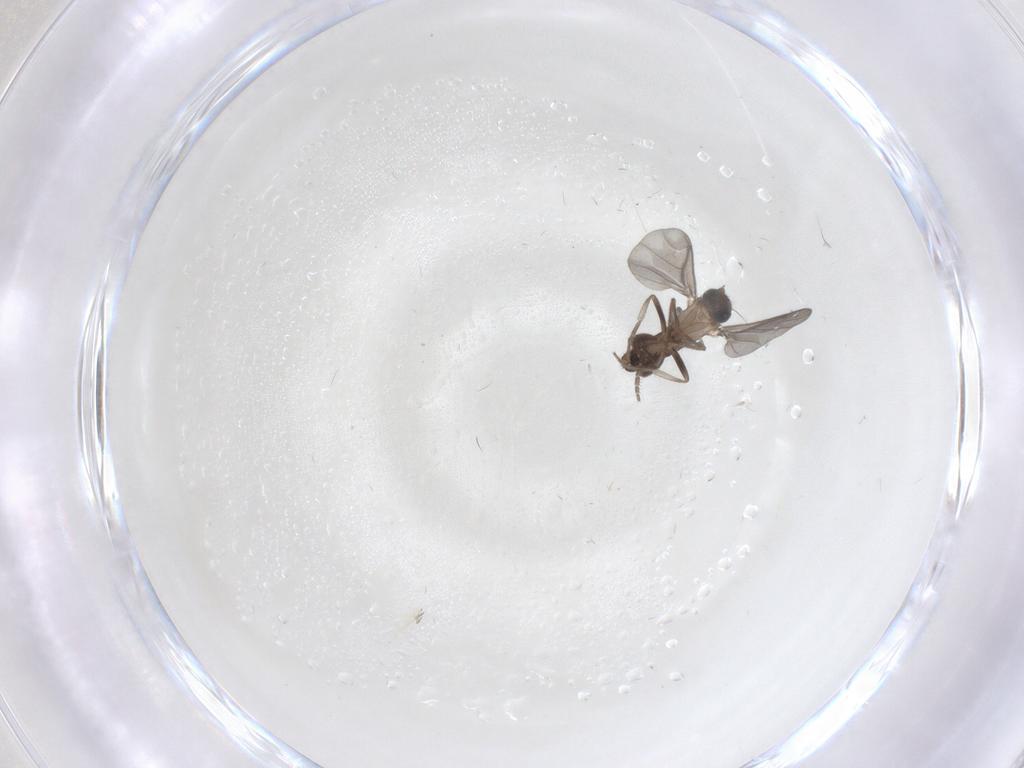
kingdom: Animalia
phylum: Arthropoda
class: Insecta
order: Diptera
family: Phoridae
